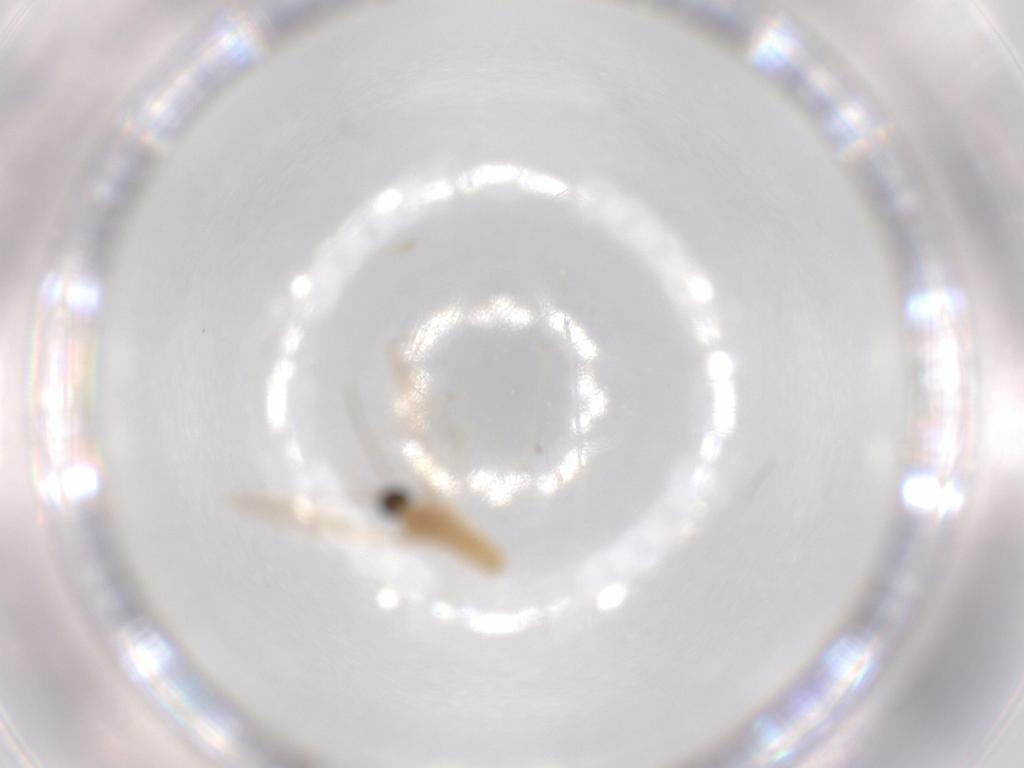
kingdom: Animalia
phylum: Arthropoda
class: Insecta
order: Diptera
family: Cecidomyiidae
